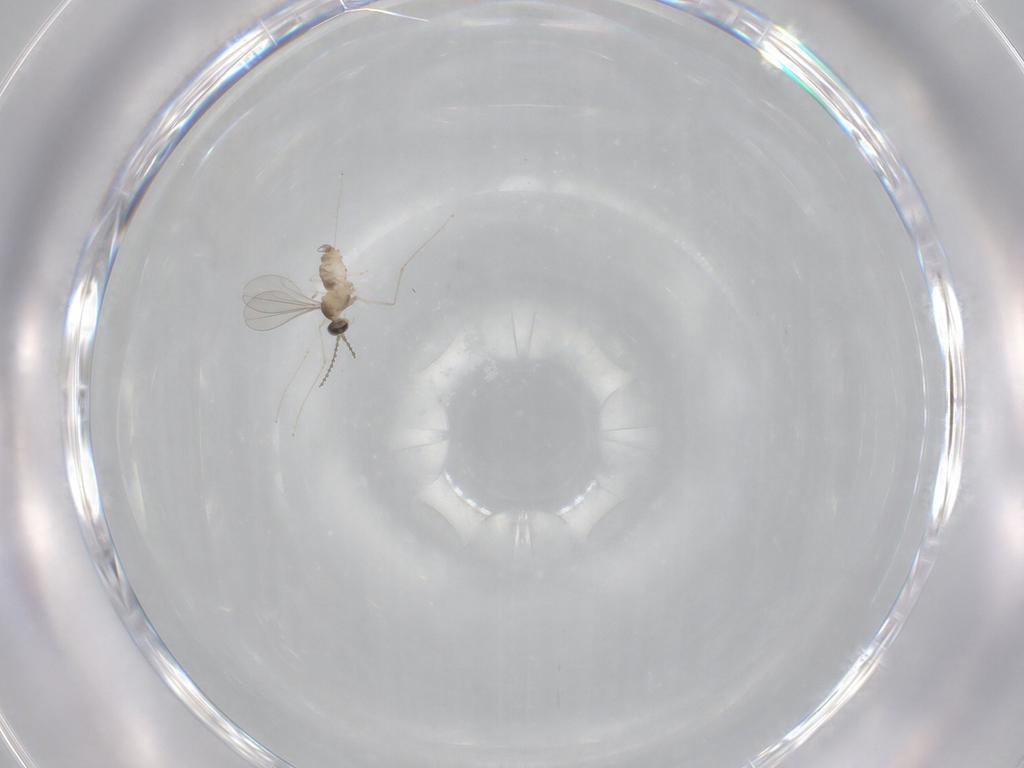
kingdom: Animalia
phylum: Arthropoda
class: Insecta
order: Diptera
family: Cecidomyiidae
